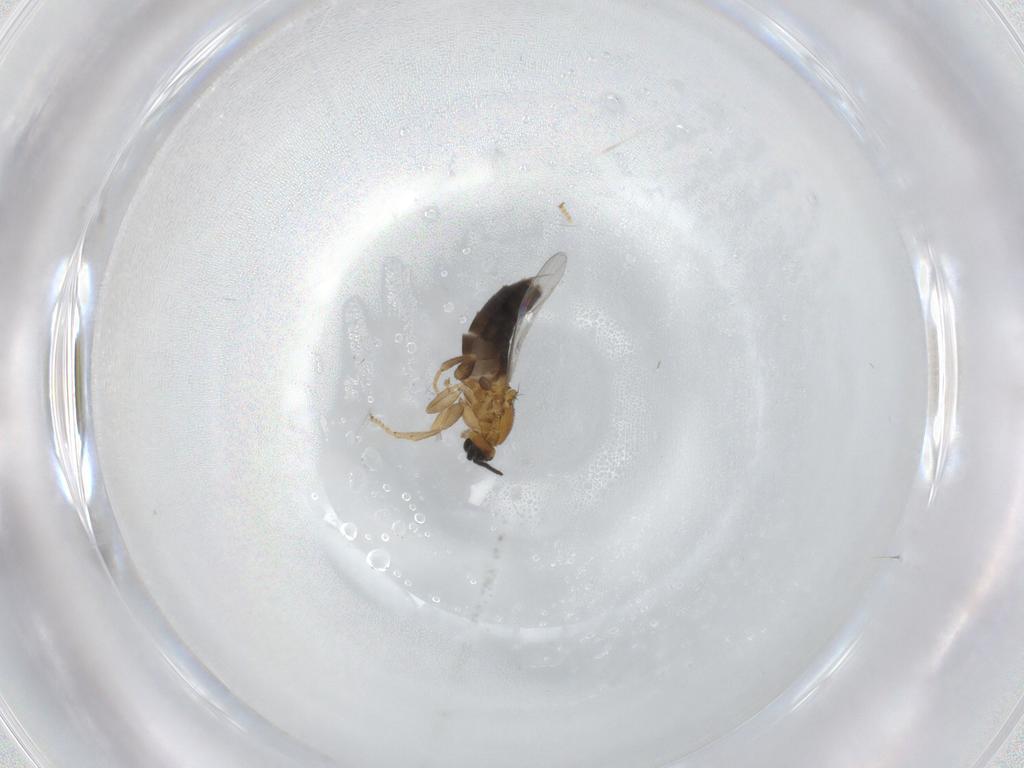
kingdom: Animalia
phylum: Arthropoda
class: Insecta
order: Diptera
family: Scatopsidae
